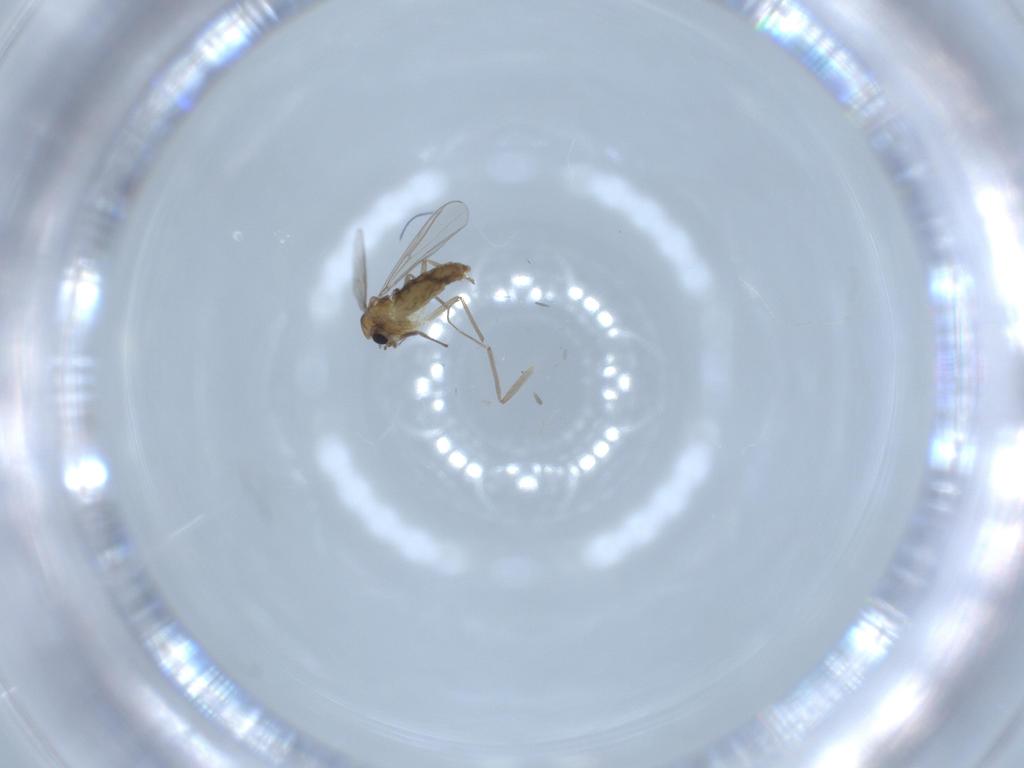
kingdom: Animalia
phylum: Arthropoda
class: Insecta
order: Diptera
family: Chironomidae
